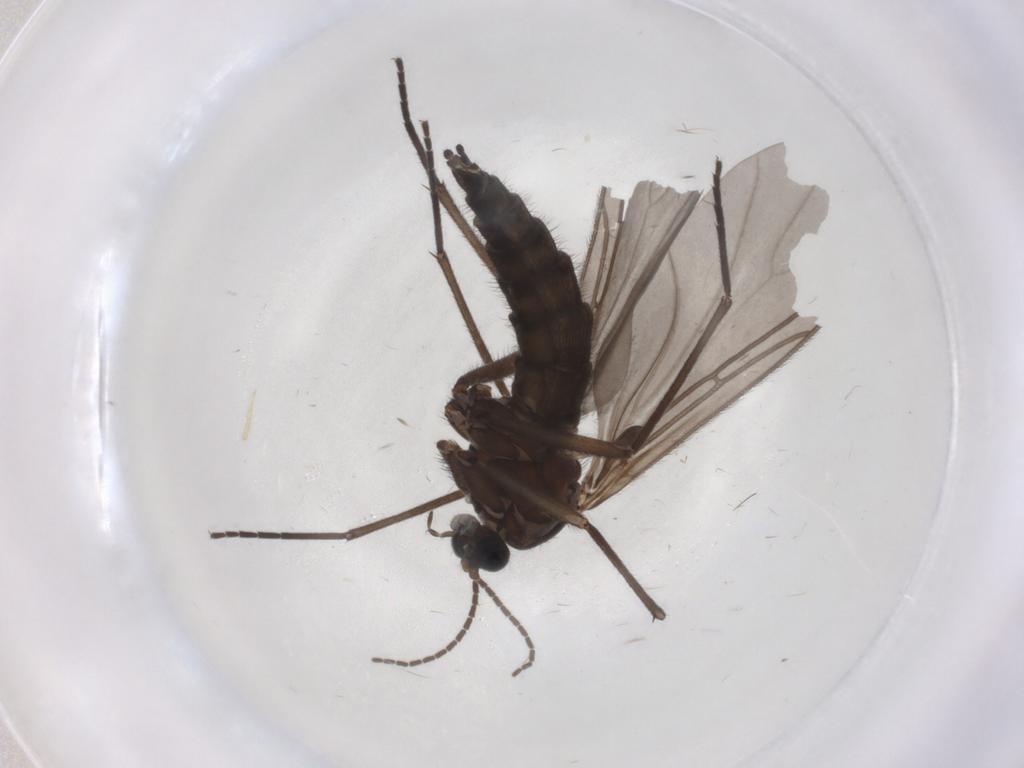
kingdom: Animalia
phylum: Arthropoda
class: Insecta
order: Diptera
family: Sciaridae
